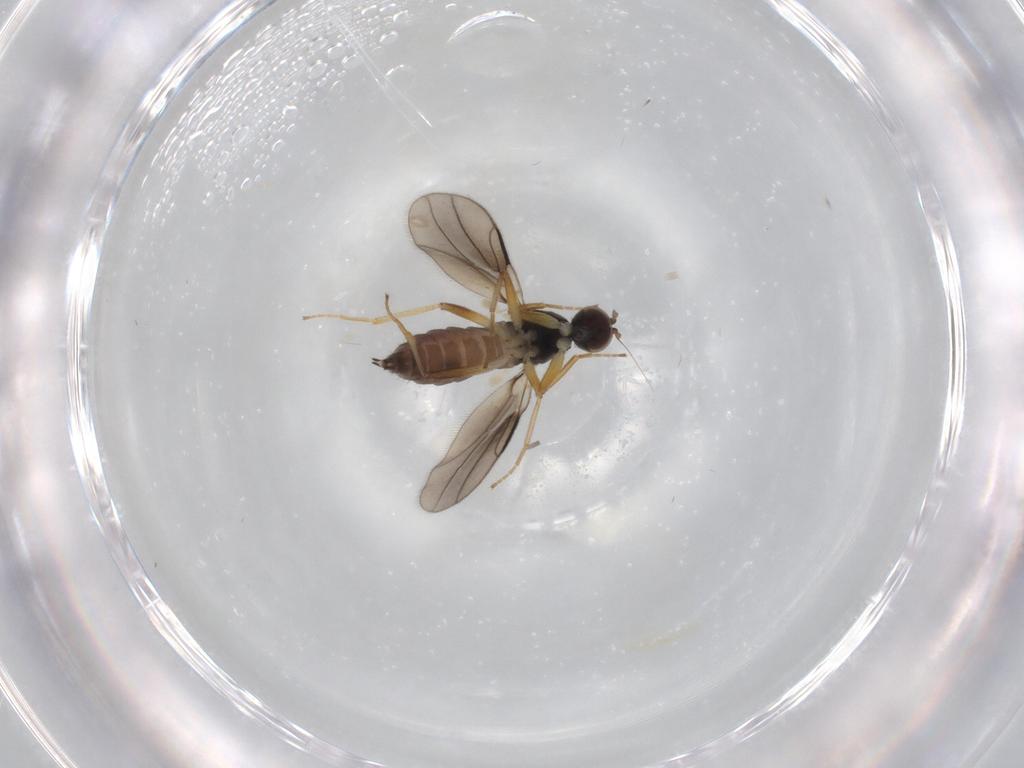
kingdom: Animalia
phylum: Arthropoda
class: Insecta
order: Diptera
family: Hybotidae
